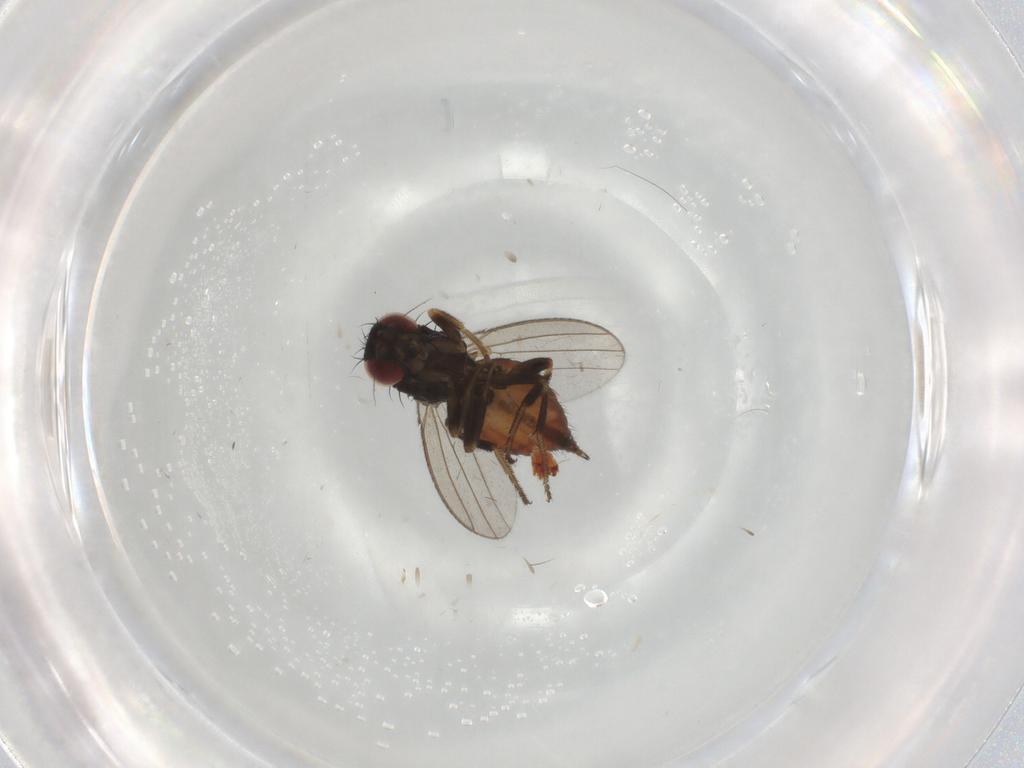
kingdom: Animalia
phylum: Arthropoda
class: Insecta
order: Diptera
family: Milichiidae
